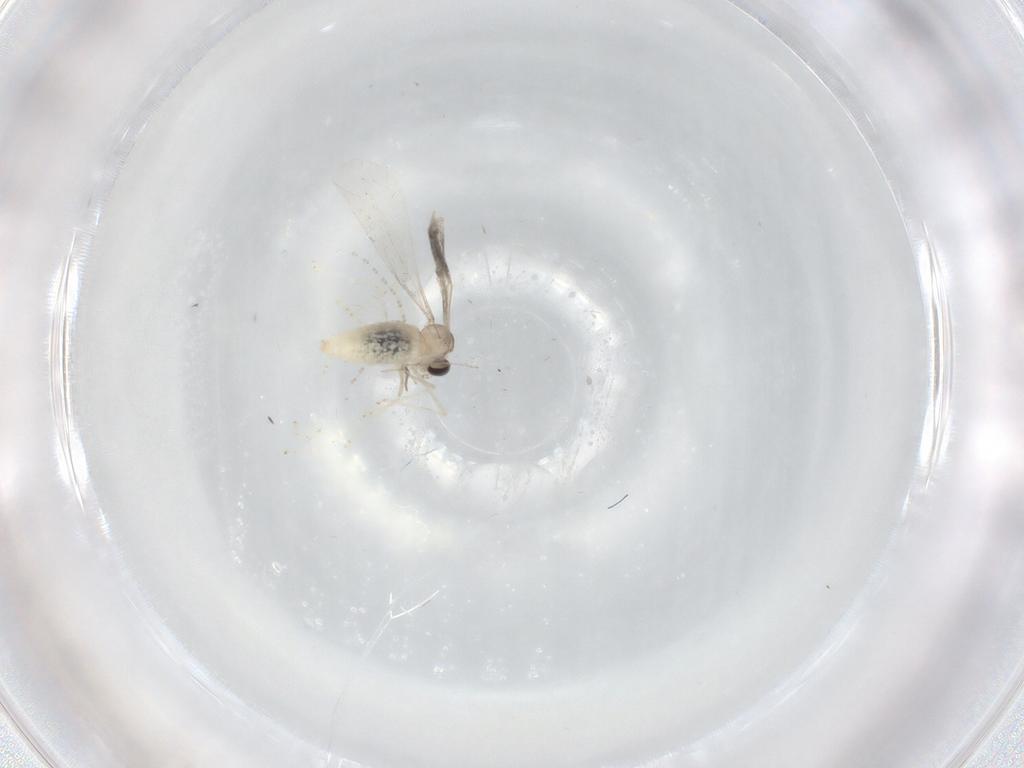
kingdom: Animalia
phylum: Arthropoda
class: Insecta
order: Diptera
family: Cecidomyiidae
